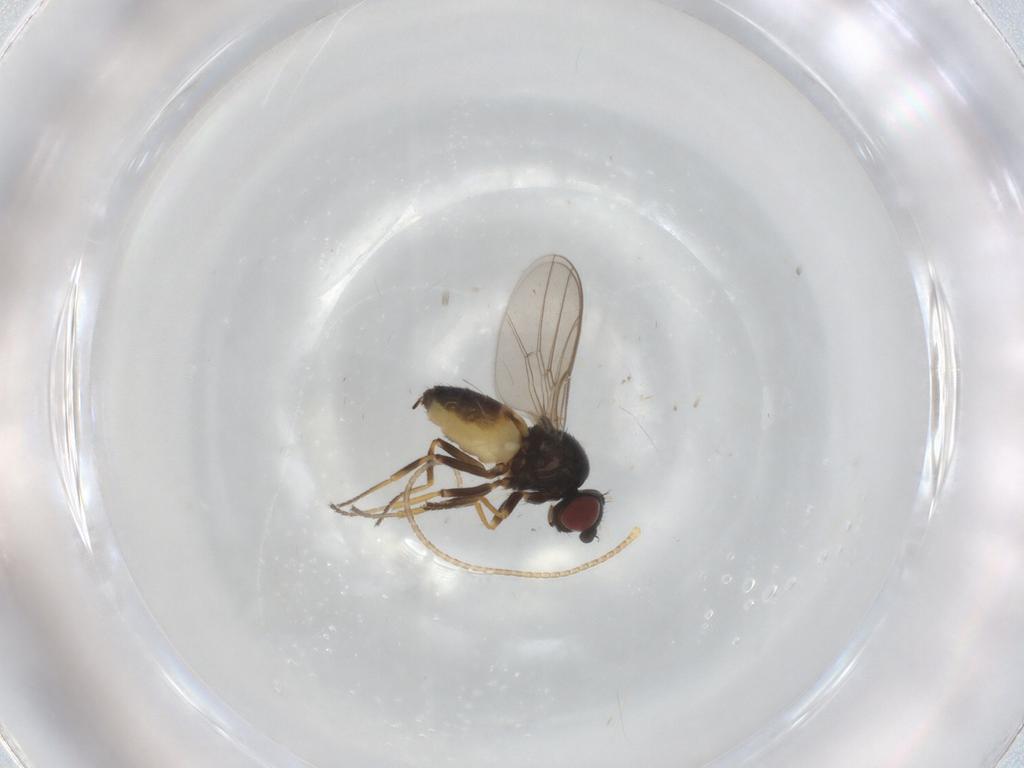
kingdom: Animalia
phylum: Arthropoda
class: Insecta
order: Diptera
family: Chloropidae
